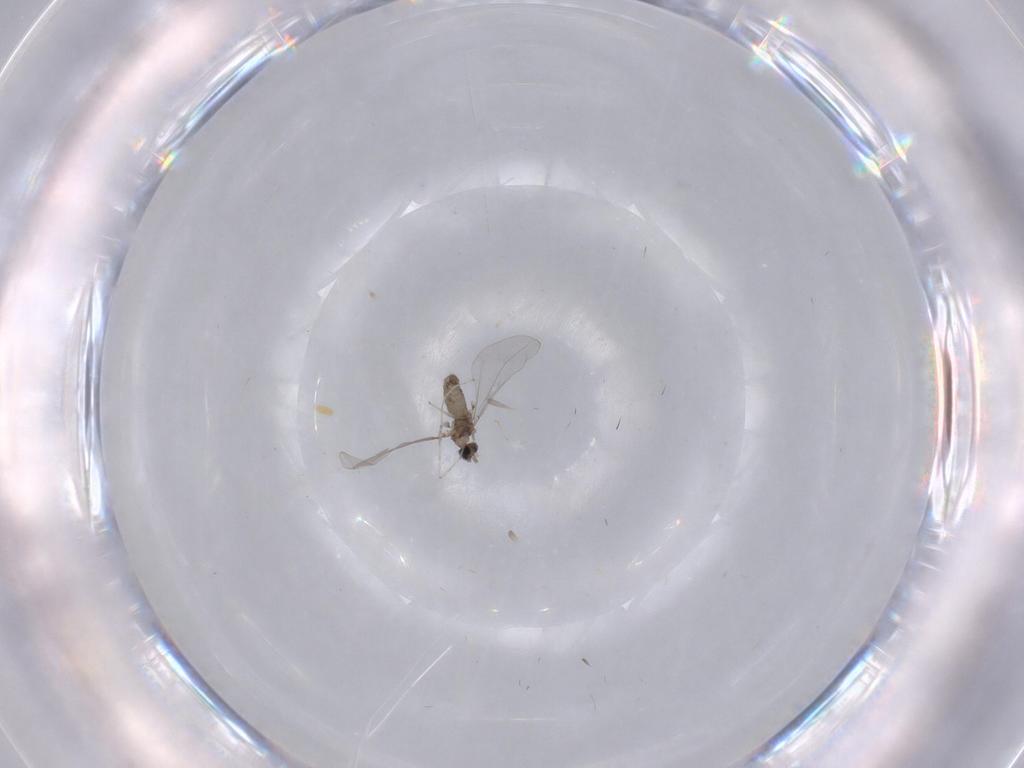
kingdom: Animalia
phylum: Arthropoda
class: Insecta
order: Diptera
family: Cecidomyiidae
